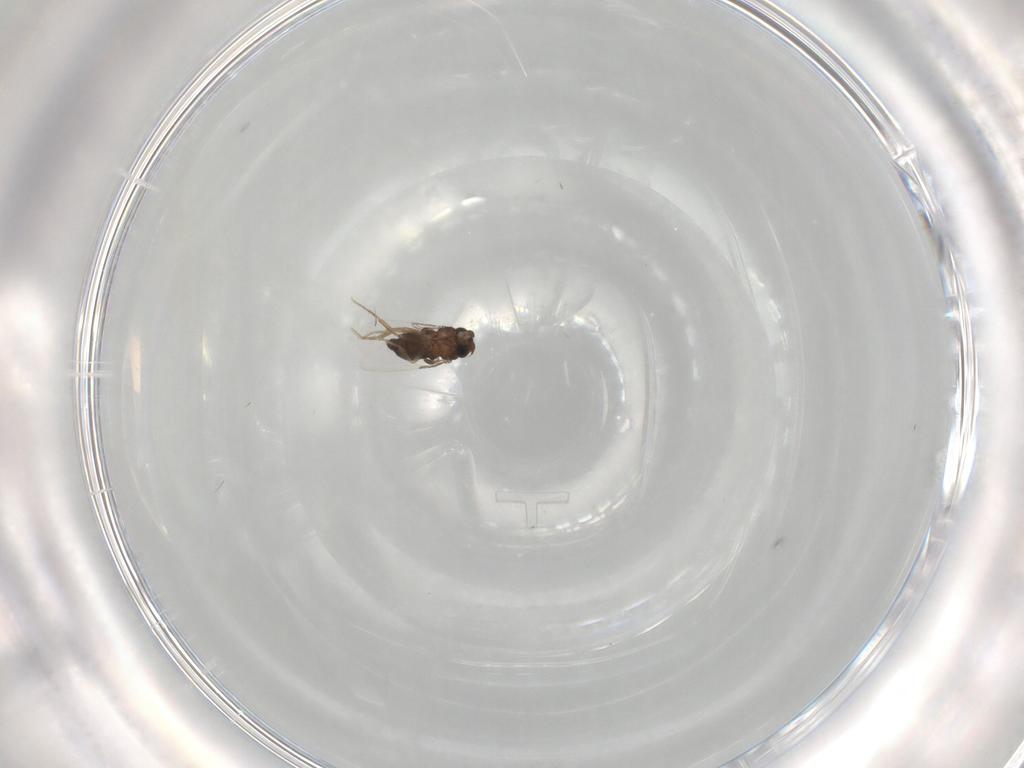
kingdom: Animalia
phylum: Arthropoda
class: Insecta
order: Diptera
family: Phoridae
